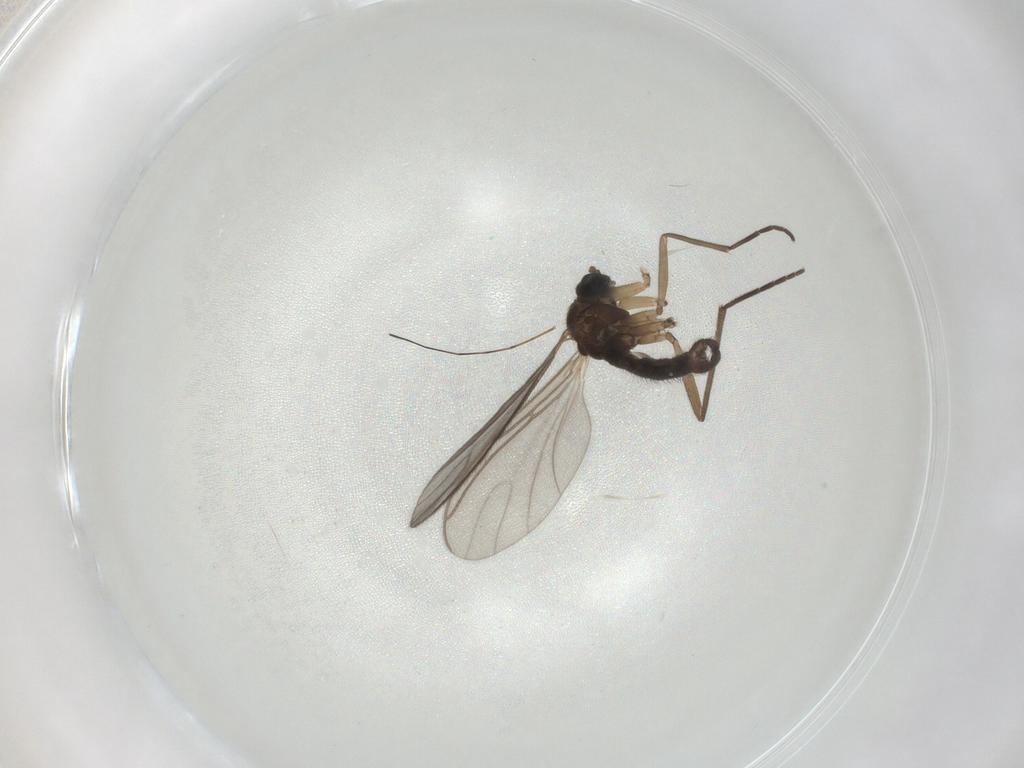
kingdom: Animalia
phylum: Arthropoda
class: Insecta
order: Diptera
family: Sciaridae
